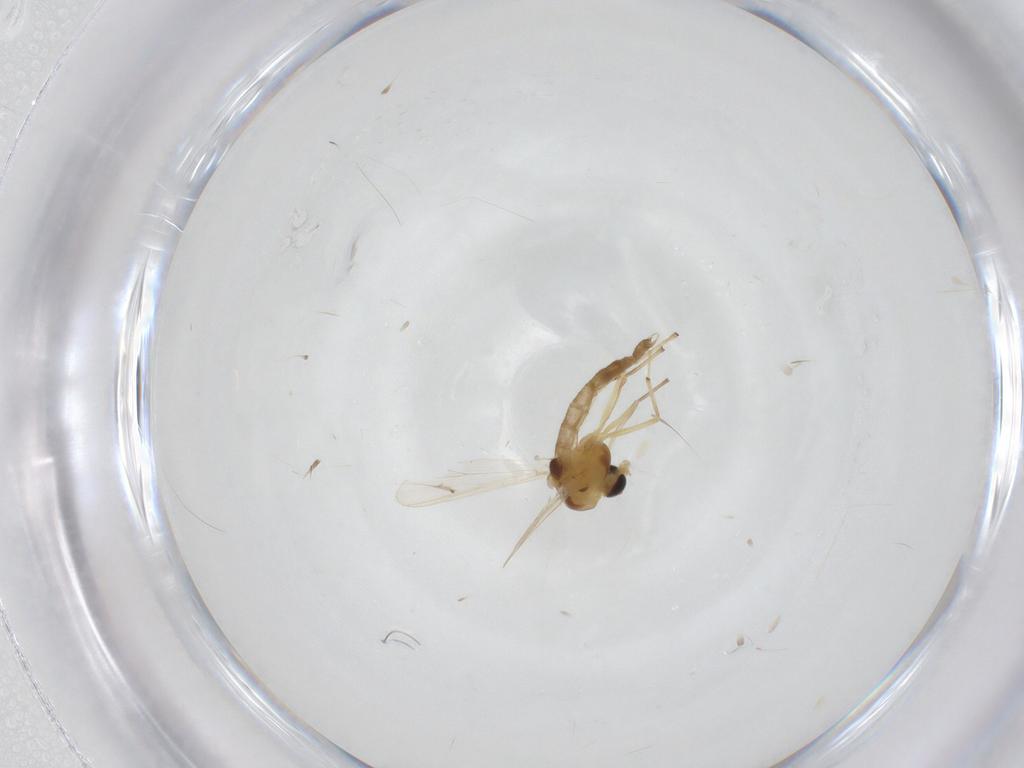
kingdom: Animalia
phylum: Arthropoda
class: Insecta
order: Diptera
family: Chironomidae
